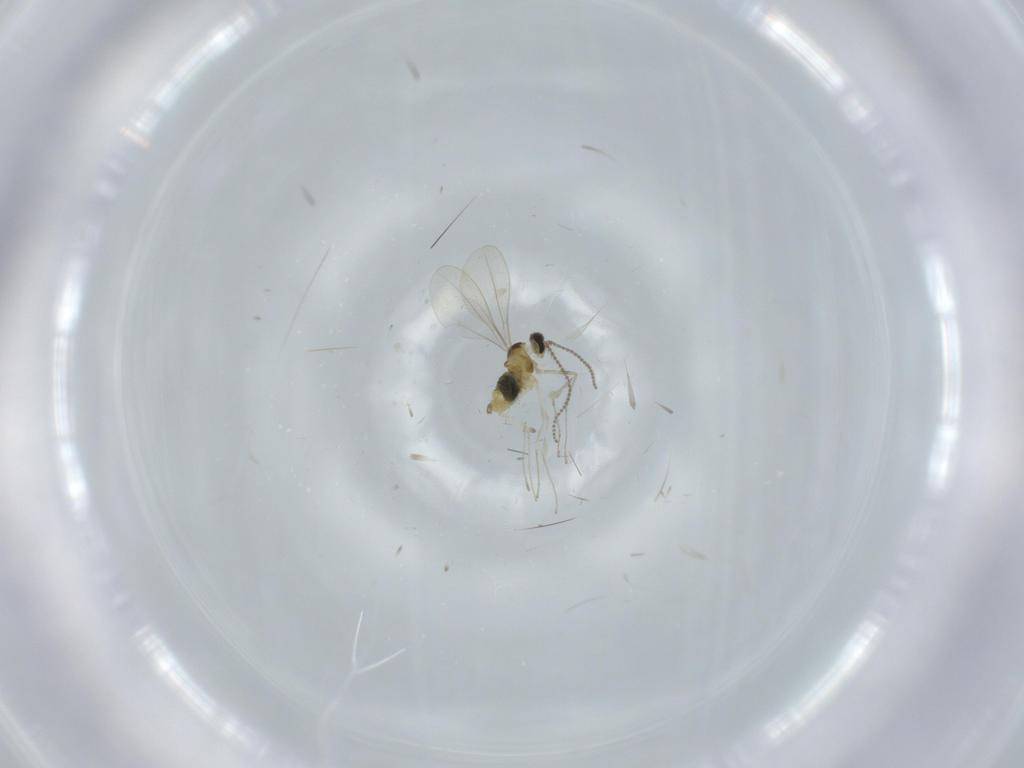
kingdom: Animalia
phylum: Arthropoda
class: Insecta
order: Diptera
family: Cecidomyiidae
